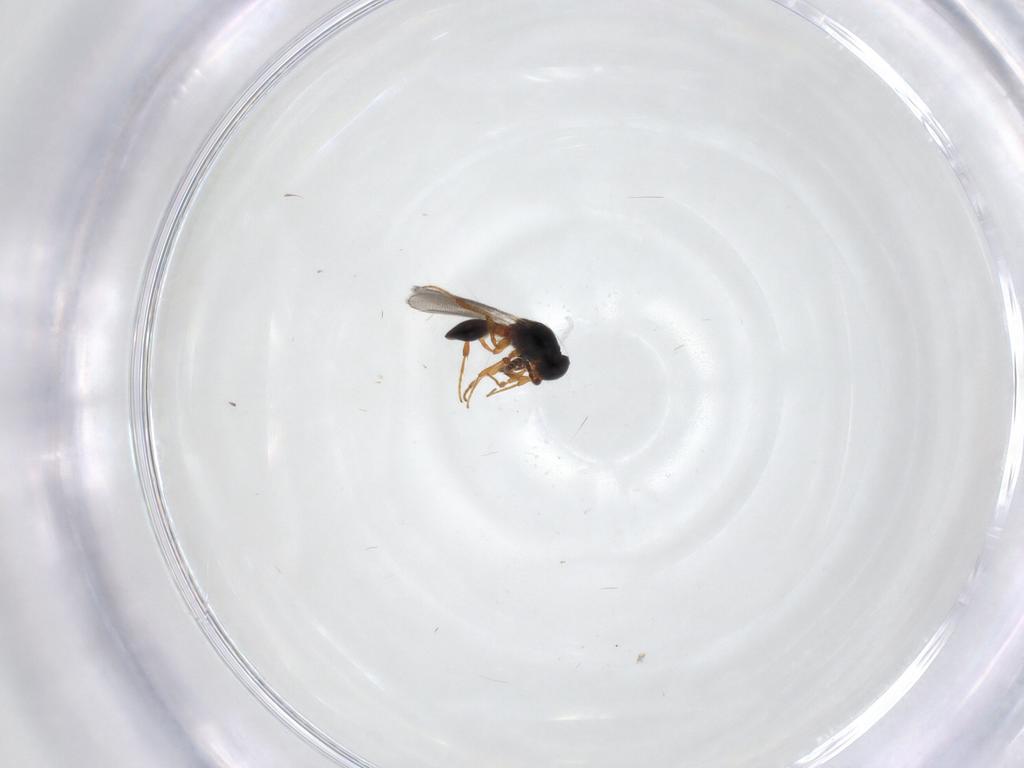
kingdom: Animalia
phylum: Arthropoda
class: Insecta
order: Hymenoptera
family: Platygastridae
